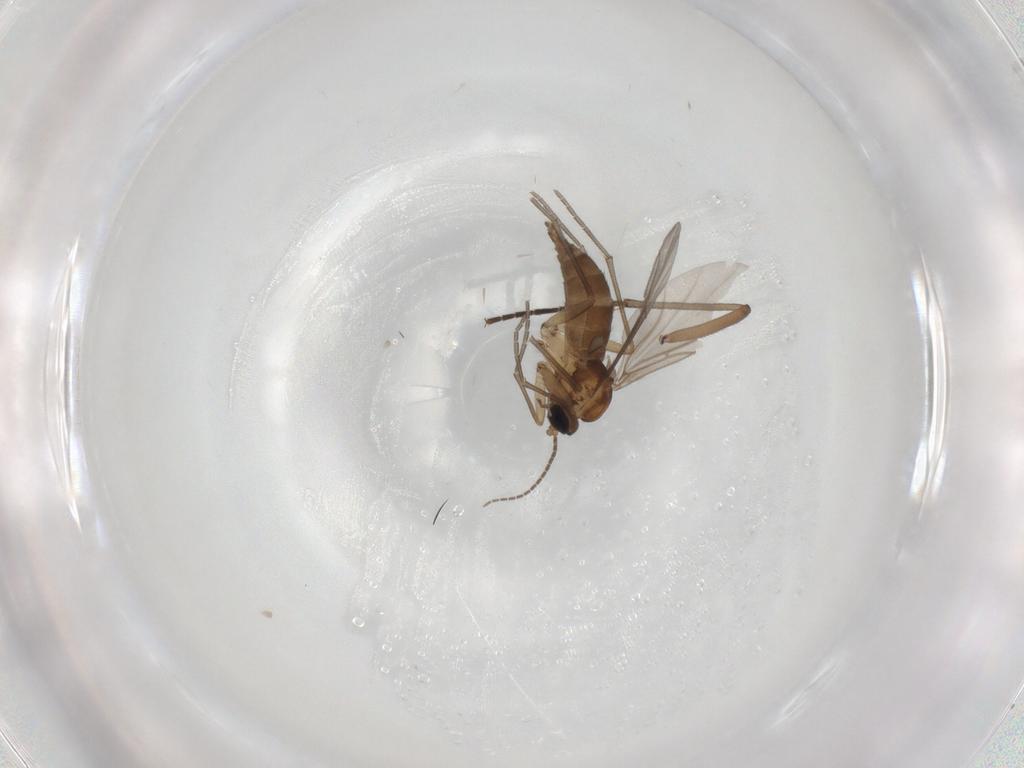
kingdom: Animalia
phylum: Arthropoda
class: Insecta
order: Diptera
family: Sciaridae
